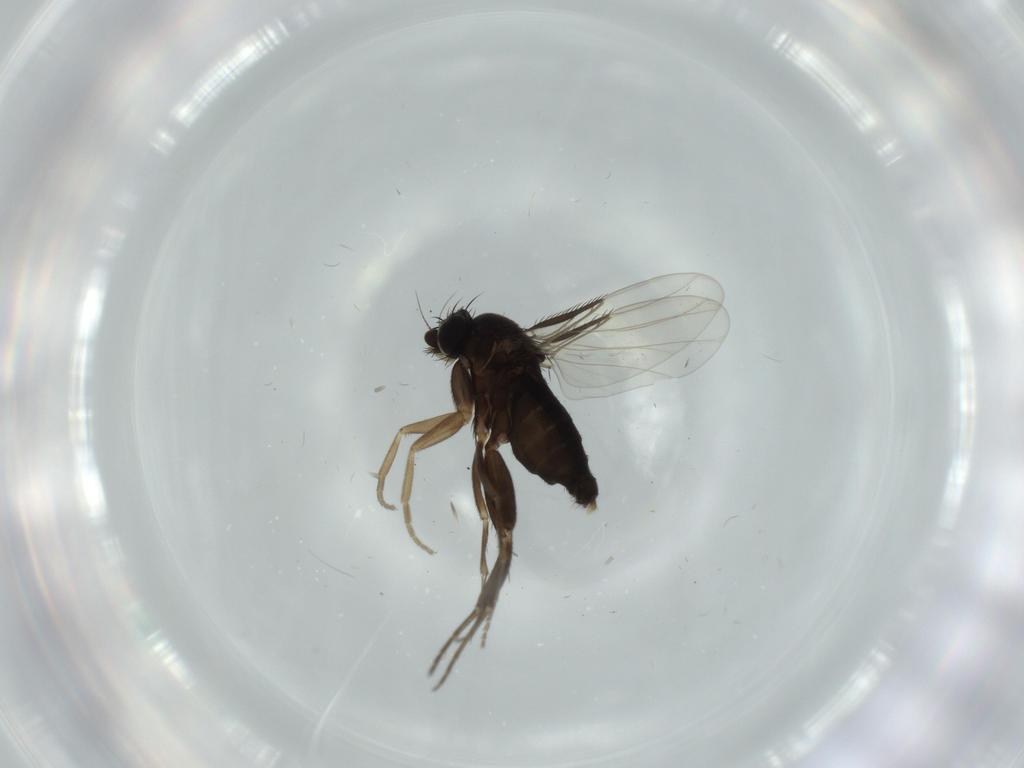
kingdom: Animalia
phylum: Arthropoda
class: Insecta
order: Diptera
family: Phoridae
